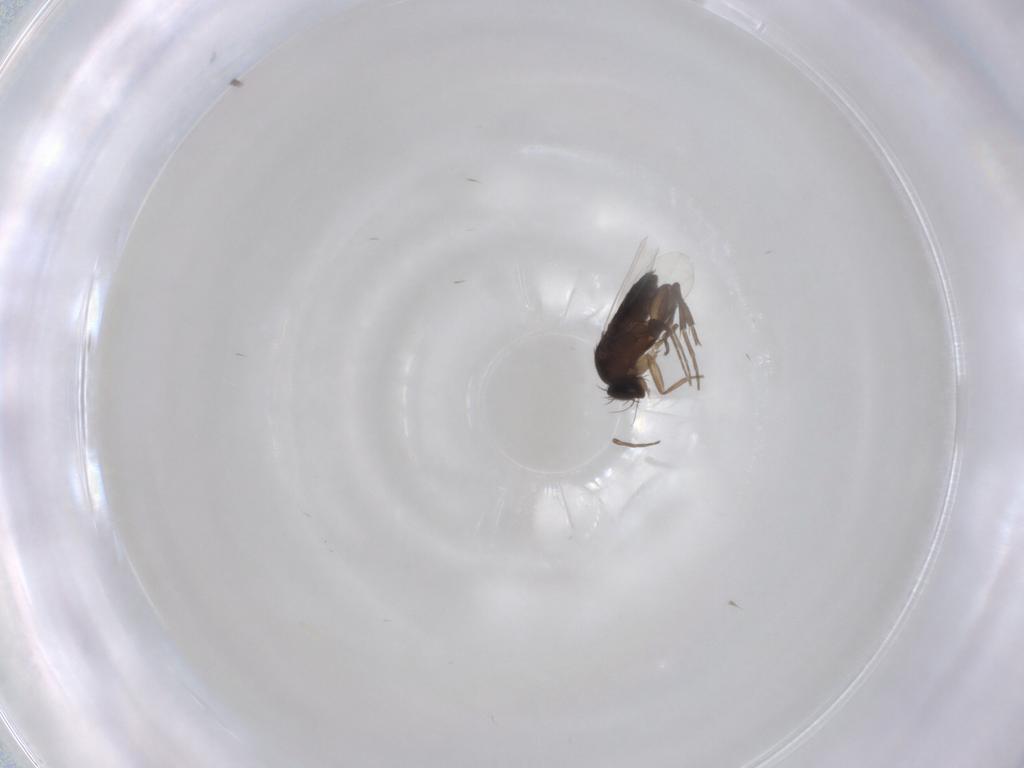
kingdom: Animalia
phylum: Arthropoda
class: Insecta
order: Diptera
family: Phoridae
